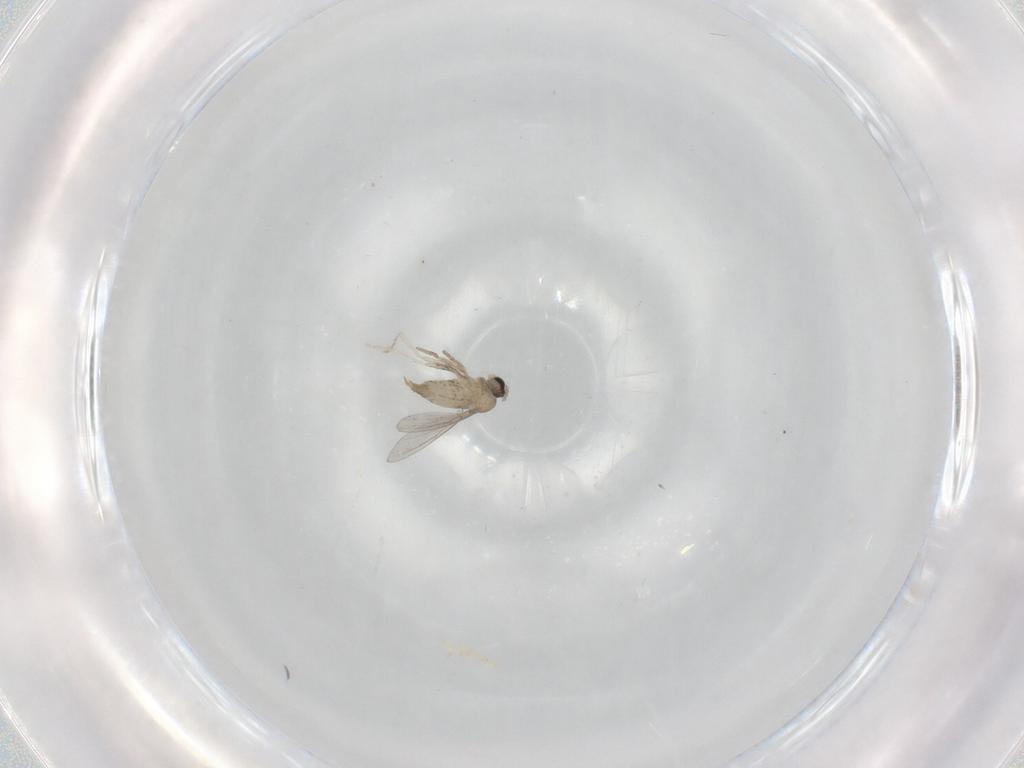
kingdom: Animalia
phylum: Arthropoda
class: Insecta
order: Diptera
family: Cecidomyiidae
